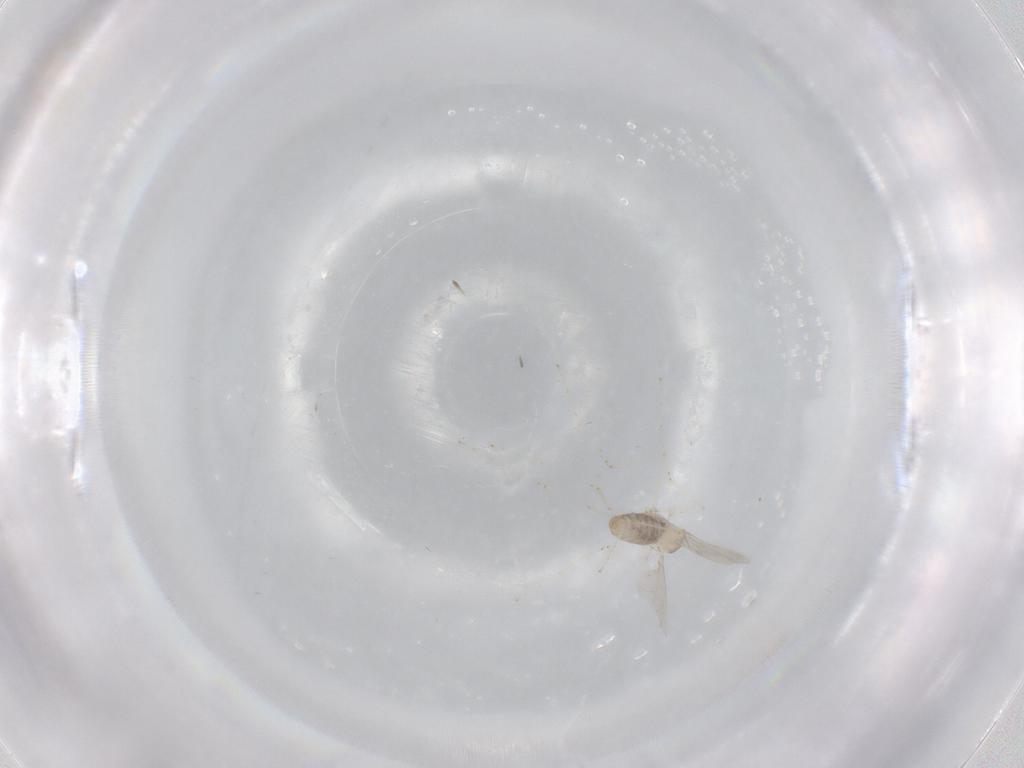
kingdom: Animalia
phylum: Arthropoda
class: Insecta
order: Diptera
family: Cecidomyiidae
